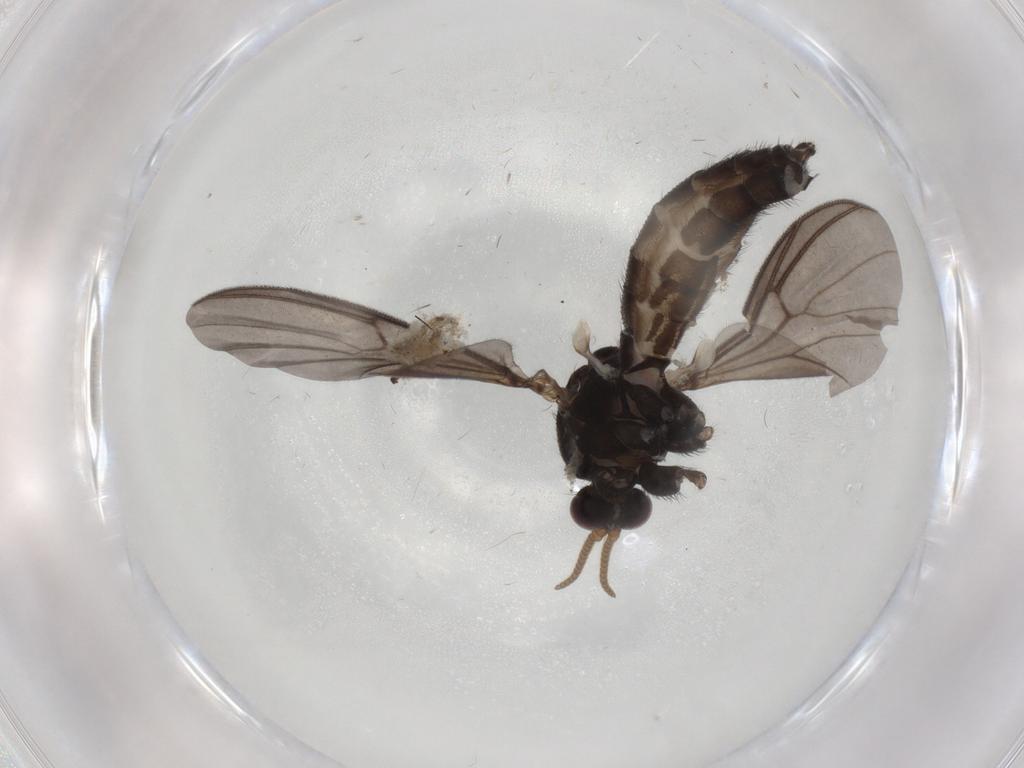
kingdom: Animalia
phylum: Arthropoda
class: Insecta
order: Diptera
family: Mycetophilidae
